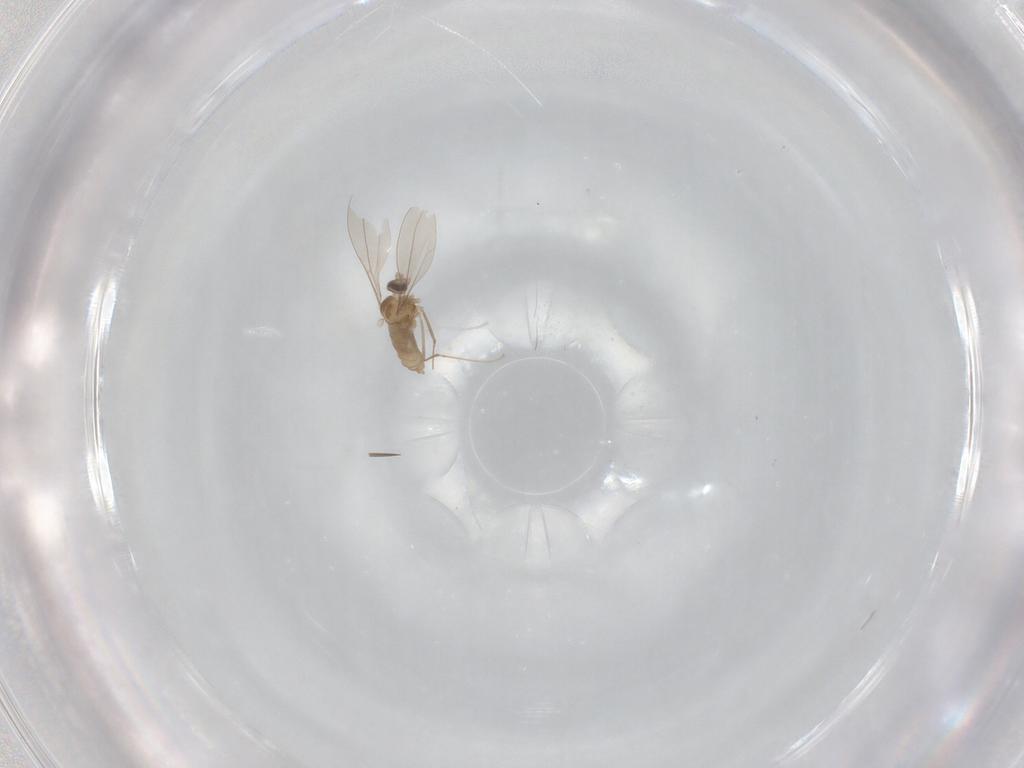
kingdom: Animalia
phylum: Arthropoda
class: Insecta
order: Diptera
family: Cecidomyiidae
